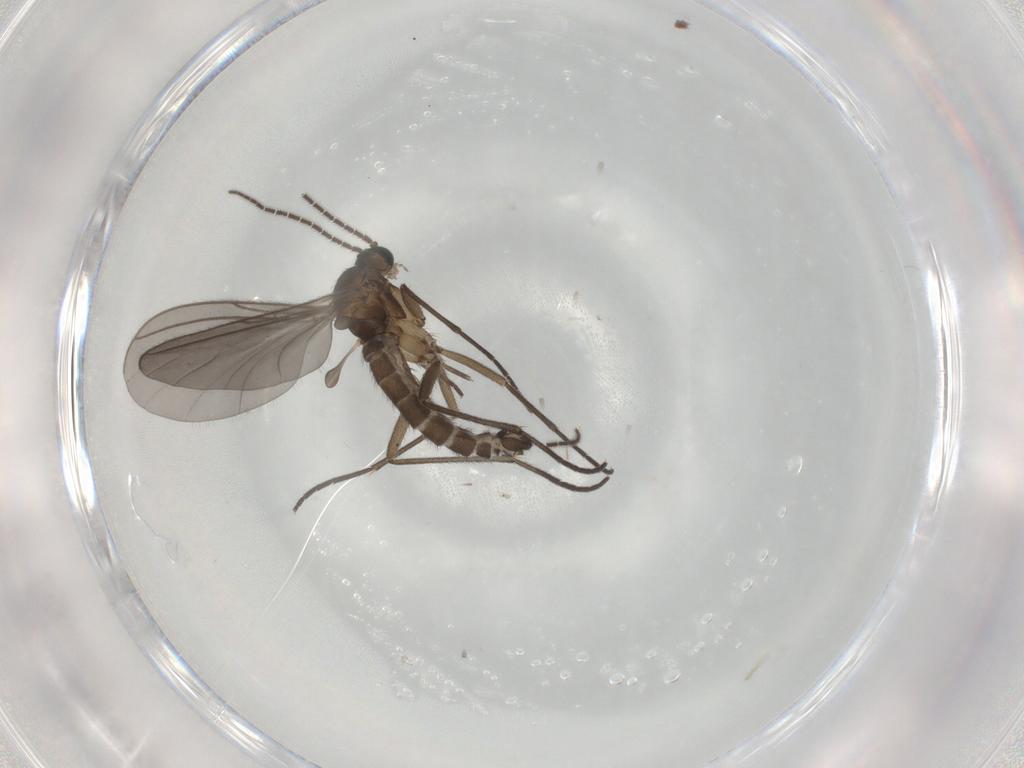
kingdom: Animalia
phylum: Arthropoda
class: Insecta
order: Diptera
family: Sciaridae
